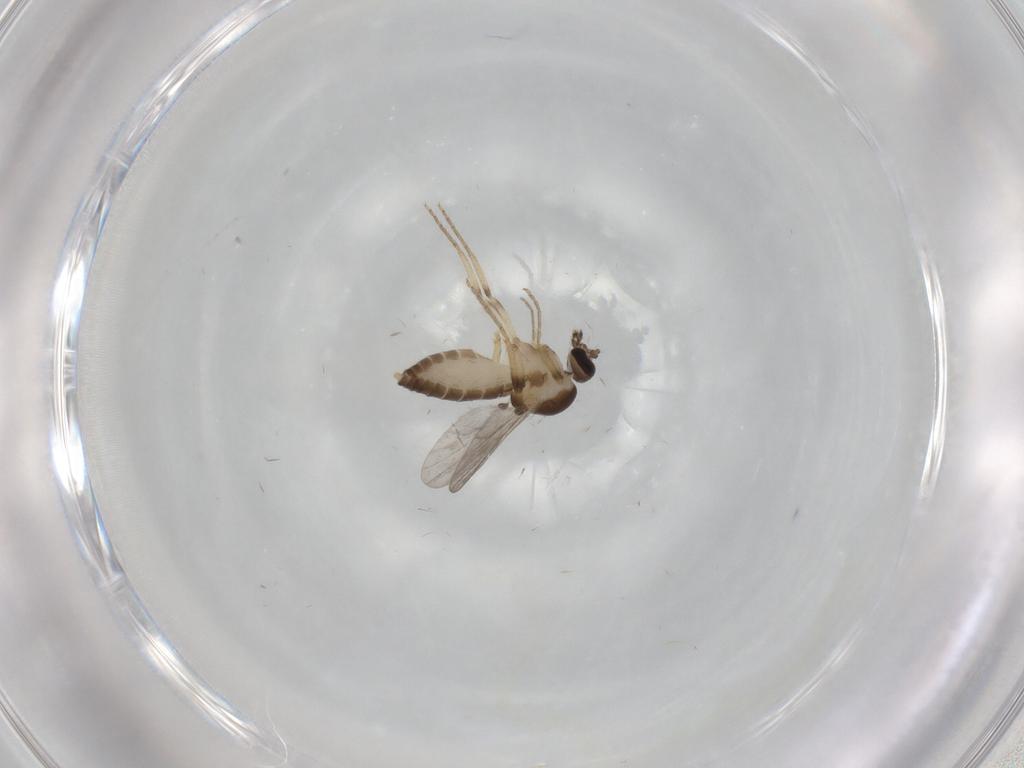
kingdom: Animalia
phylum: Arthropoda
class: Insecta
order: Diptera
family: Ceratopogonidae
